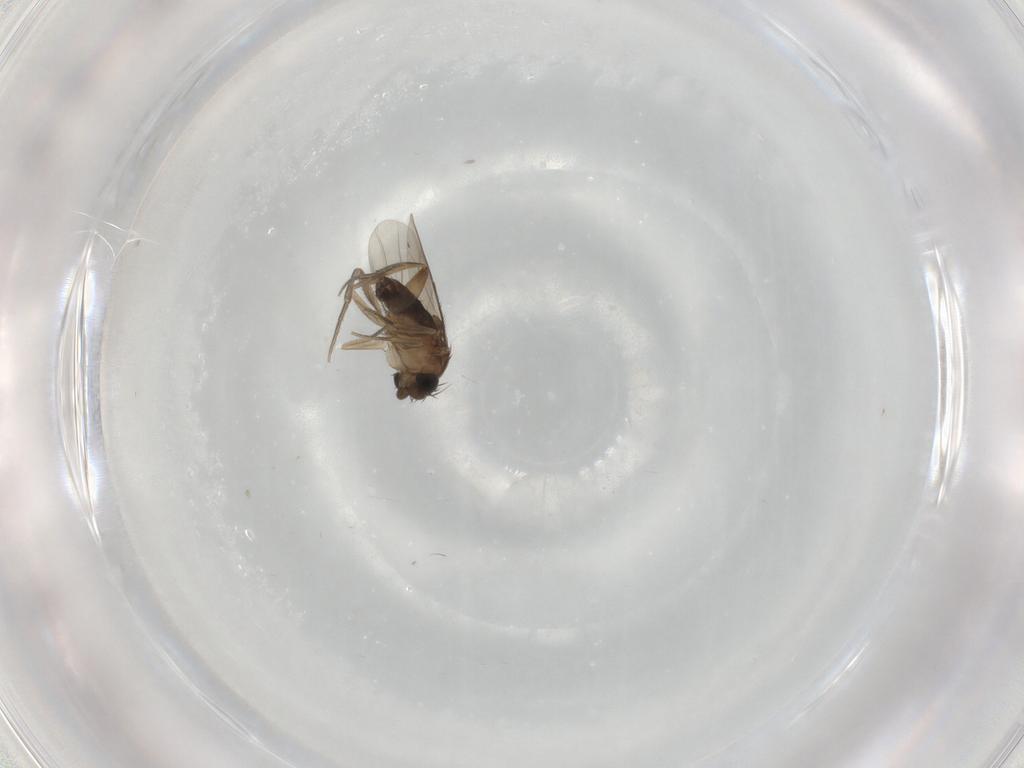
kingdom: Animalia
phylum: Arthropoda
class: Insecta
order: Diptera
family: Phoridae
